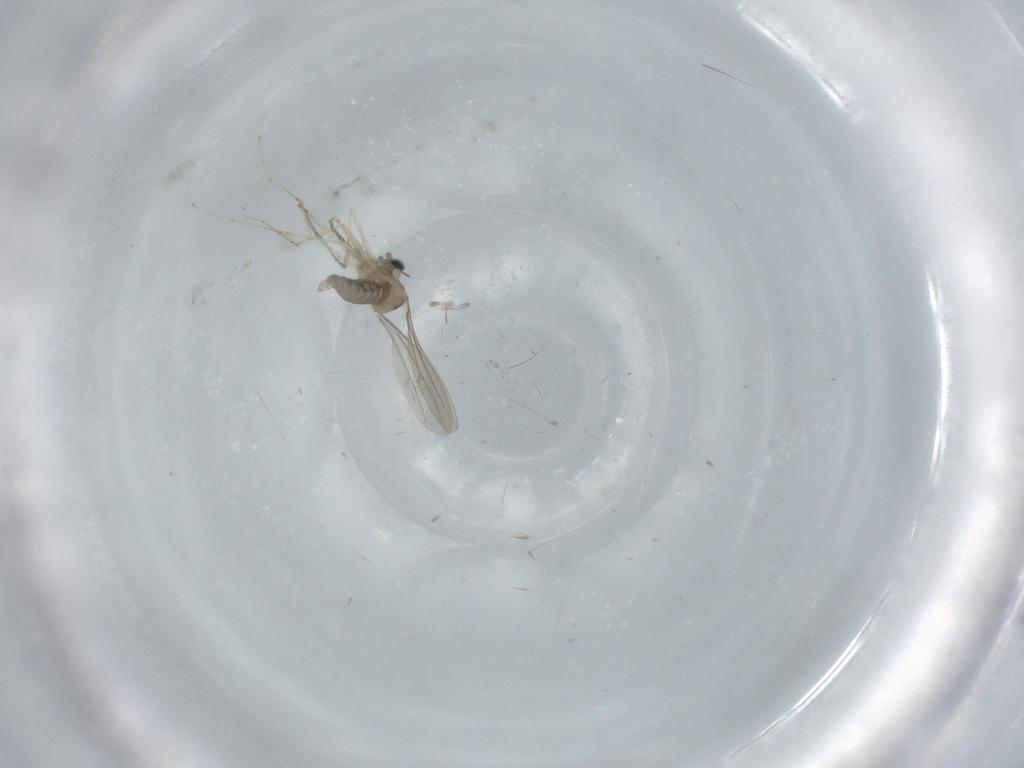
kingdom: Animalia
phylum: Arthropoda
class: Insecta
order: Diptera
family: Cecidomyiidae
